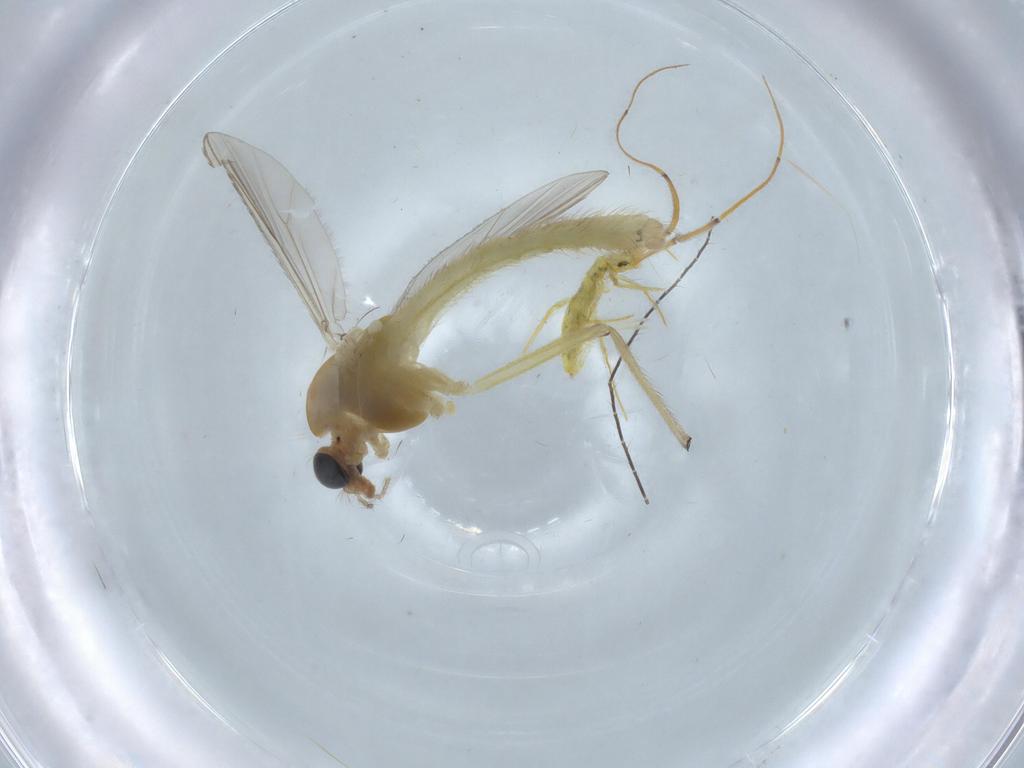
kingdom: Animalia
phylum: Arthropoda
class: Insecta
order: Diptera
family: Chironomidae
